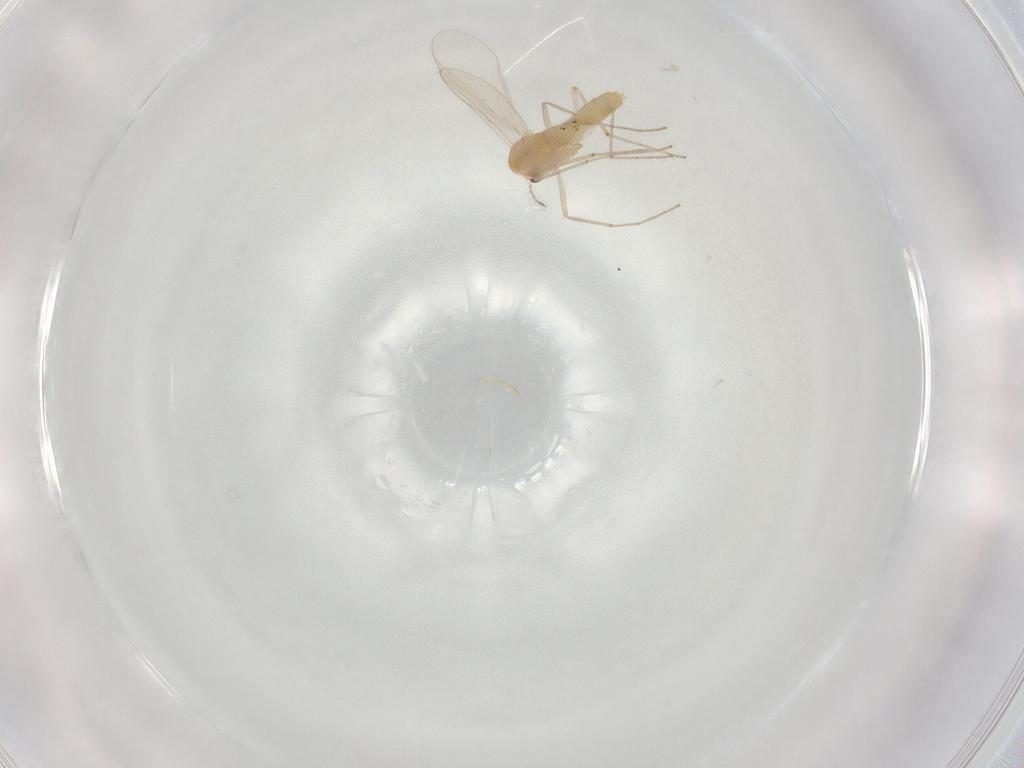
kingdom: Animalia
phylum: Arthropoda
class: Insecta
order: Diptera
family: Chironomidae
